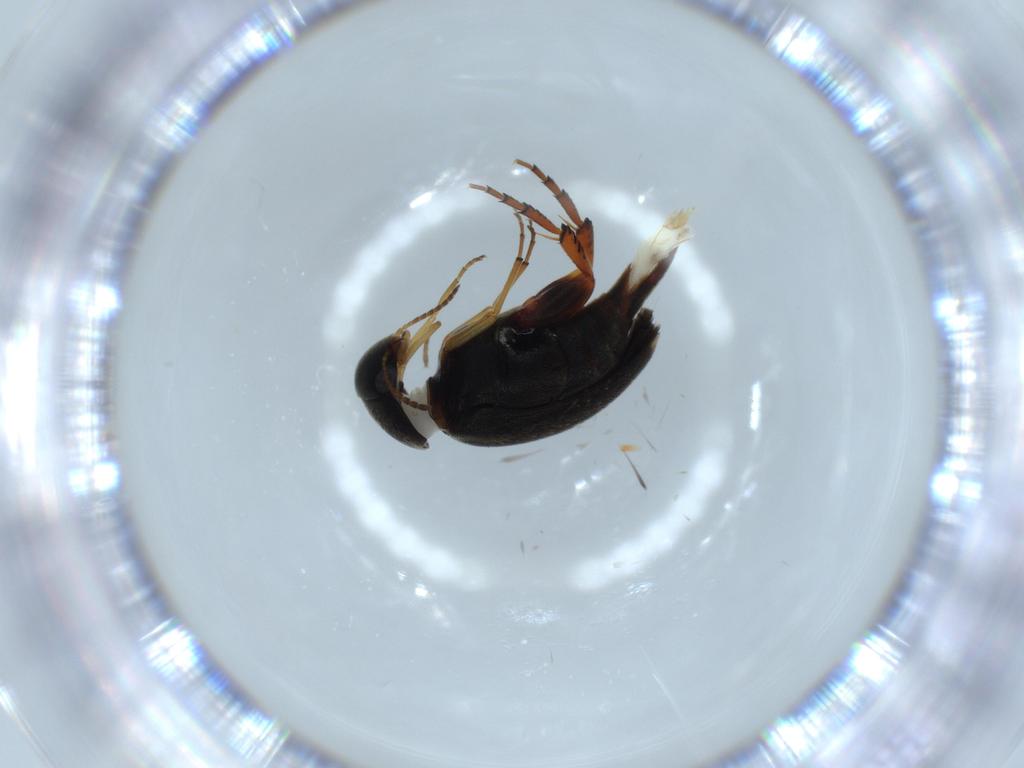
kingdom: Animalia
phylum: Arthropoda
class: Insecta
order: Coleoptera
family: Mordellidae
